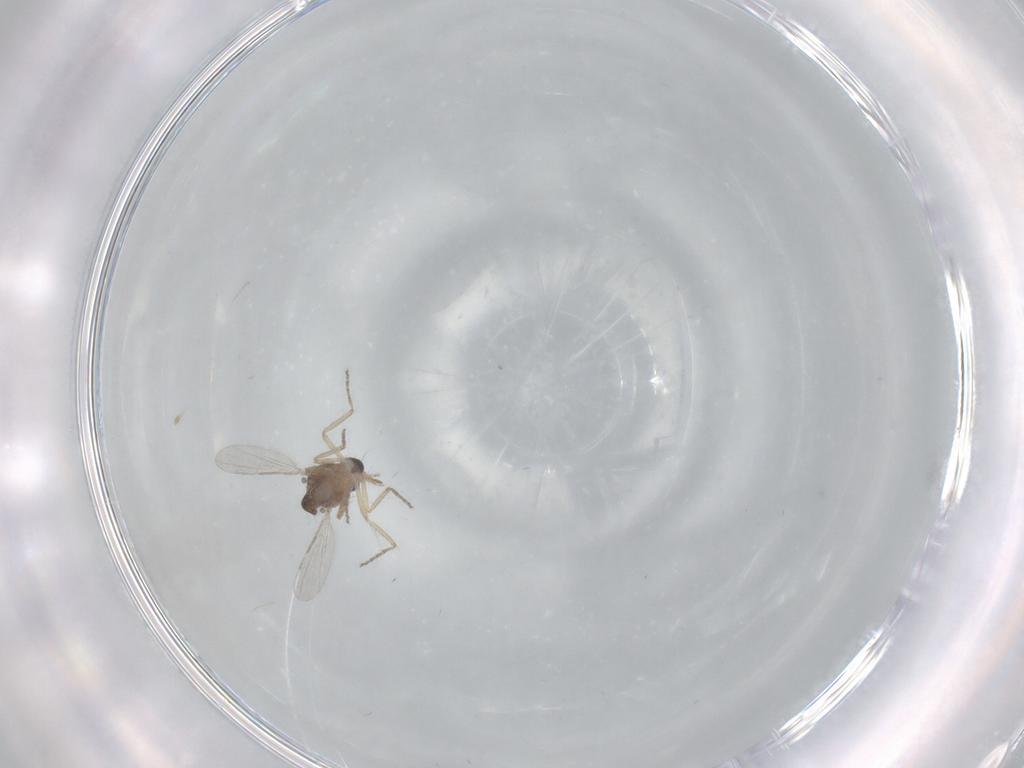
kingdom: Animalia
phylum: Arthropoda
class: Insecta
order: Diptera
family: Ceratopogonidae
